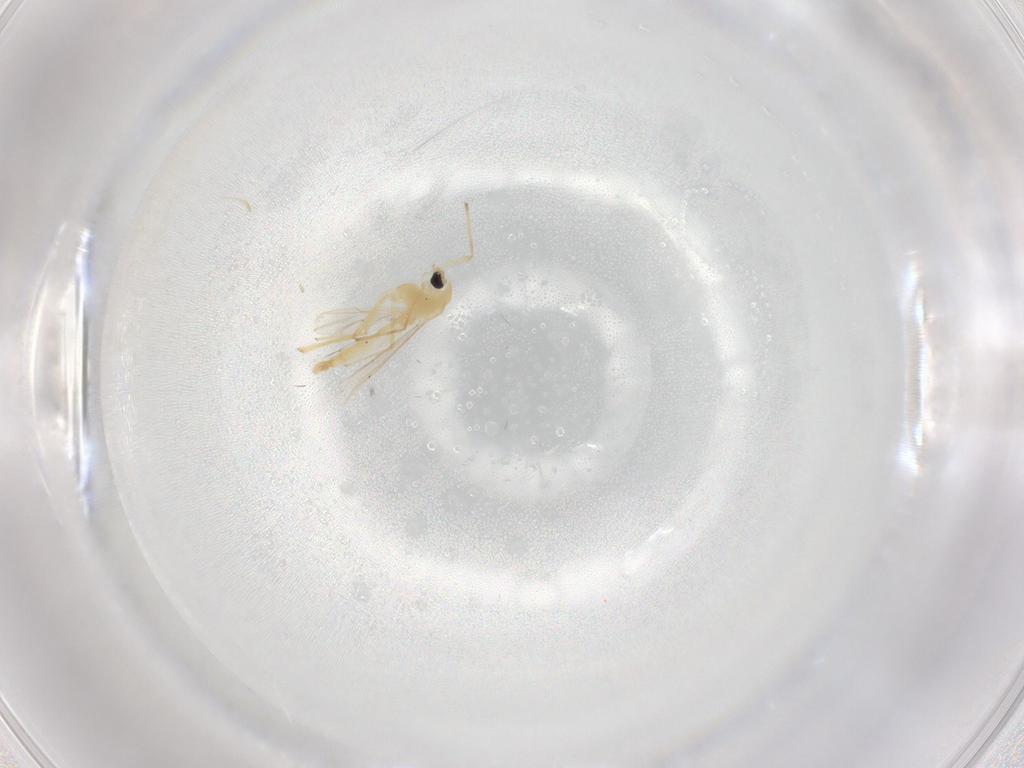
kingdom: Animalia
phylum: Arthropoda
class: Insecta
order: Diptera
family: Chironomidae
